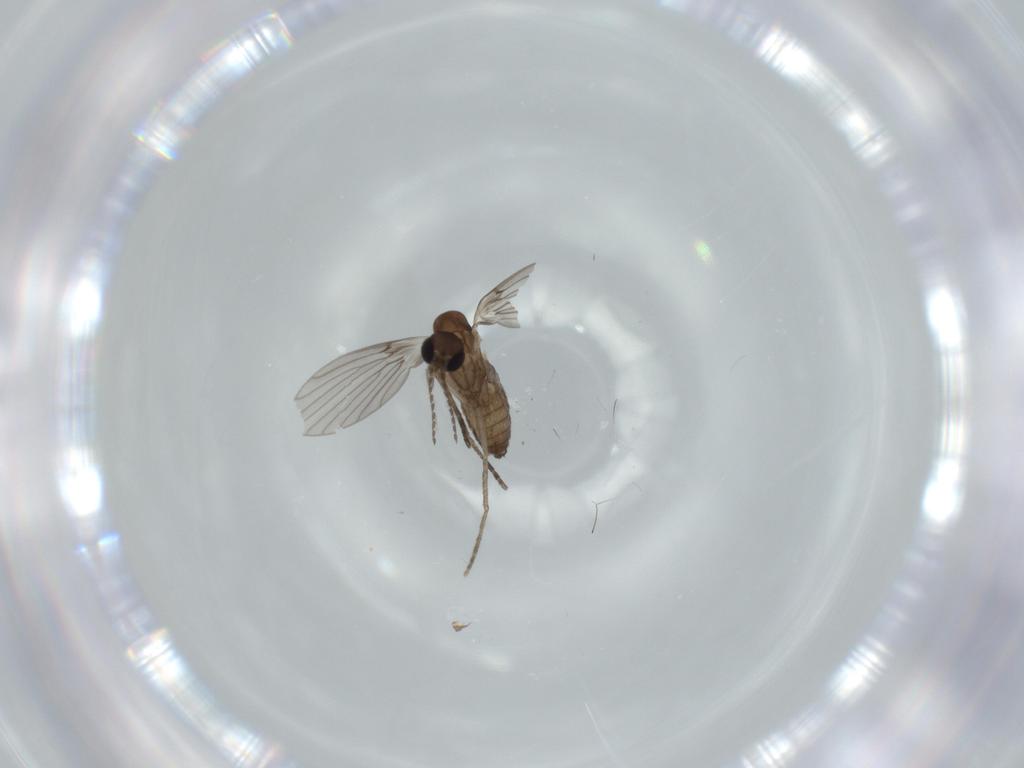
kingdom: Animalia
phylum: Arthropoda
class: Insecta
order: Diptera
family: Psychodidae
